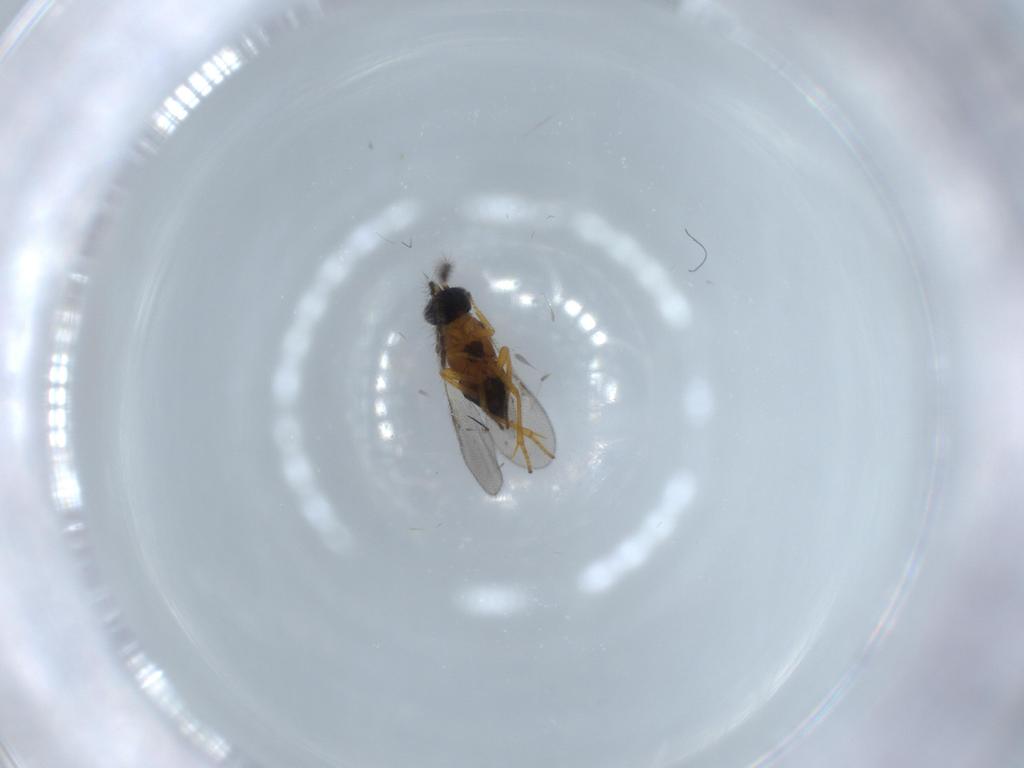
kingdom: Animalia
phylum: Arthropoda
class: Insecta
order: Hymenoptera
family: Encyrtidae
